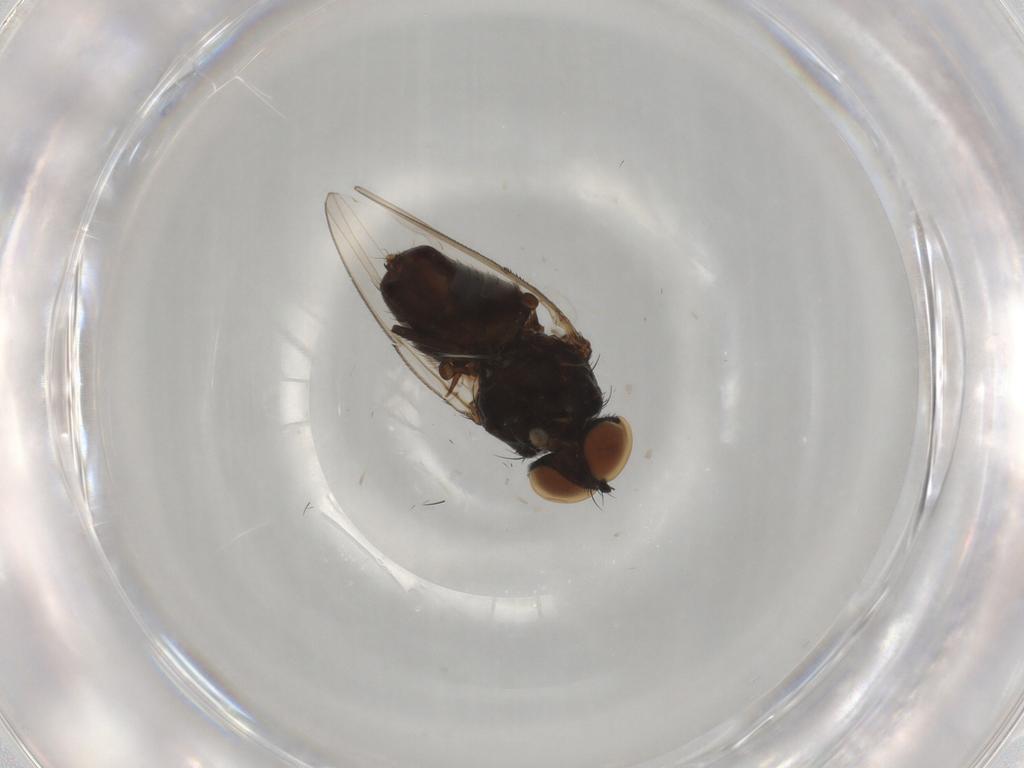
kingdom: Animalia
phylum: Arthropoda
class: Insecta
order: Diptera
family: Milichiidae
